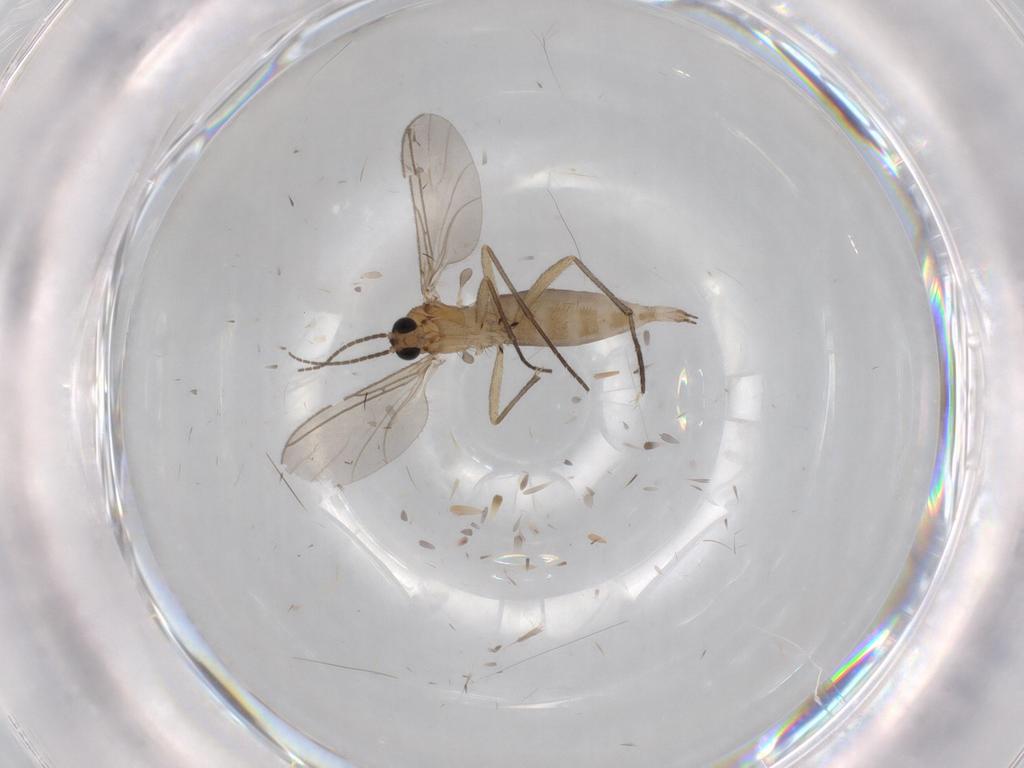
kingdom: Animalia
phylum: Arthropoda
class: Insecta
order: Diptera
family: Sciaridae
